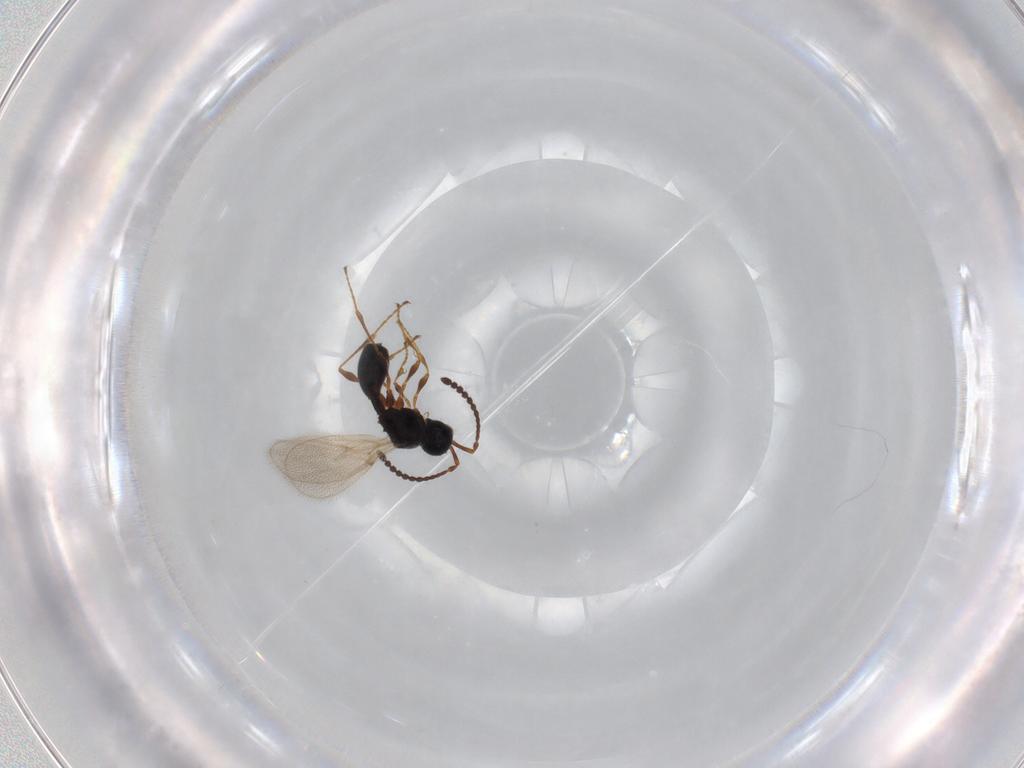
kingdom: Animalia
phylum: Arthropoda
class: Insecta
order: Hymenoptera
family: Diapriidae
